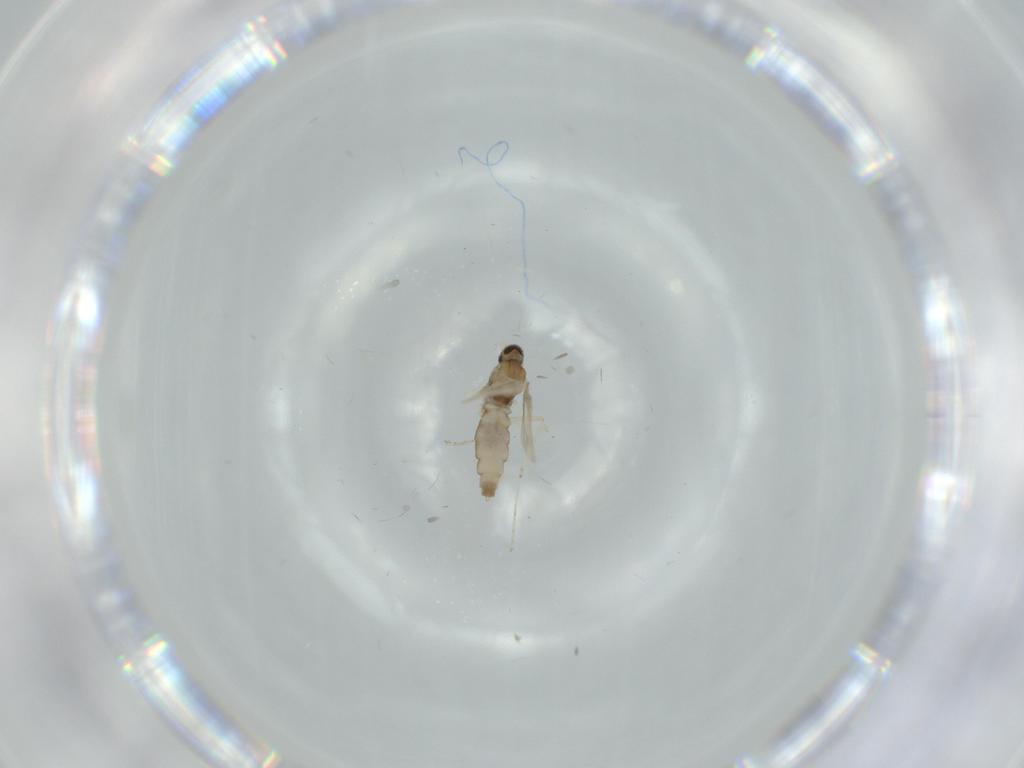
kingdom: Animalia
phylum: Arthropoda
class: Insecta
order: Diptera
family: Cecidomyiidae
